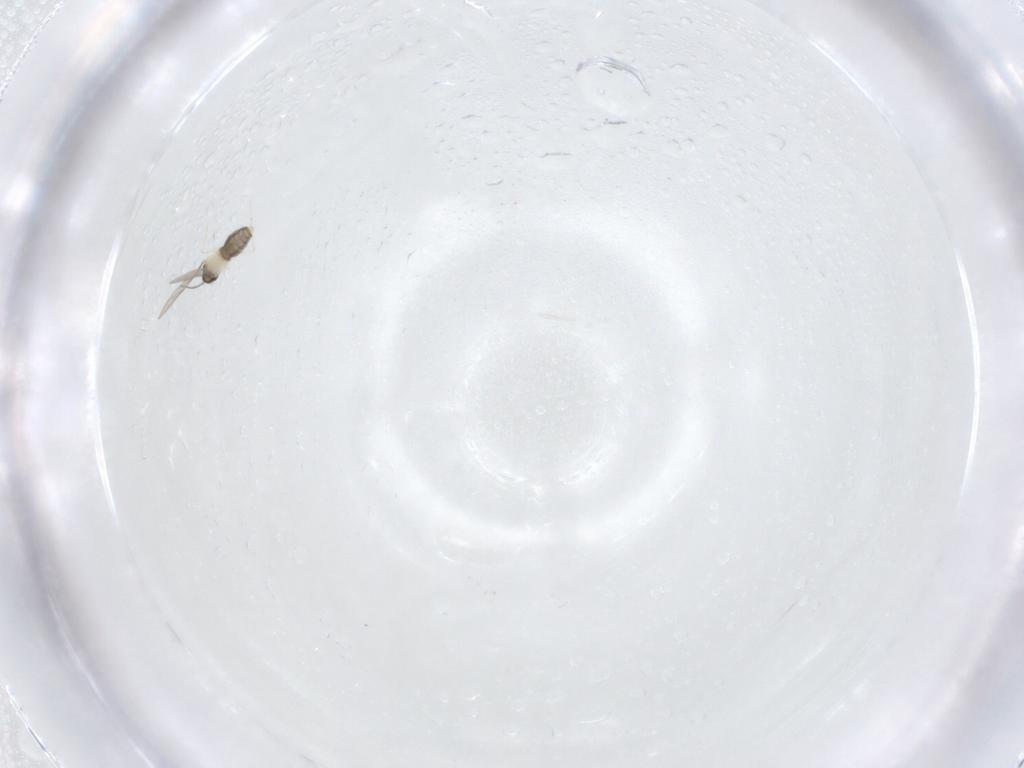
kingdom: Animalia
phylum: Arthropoda
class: Insecta
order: Diptera
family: Cecidomyiidae
